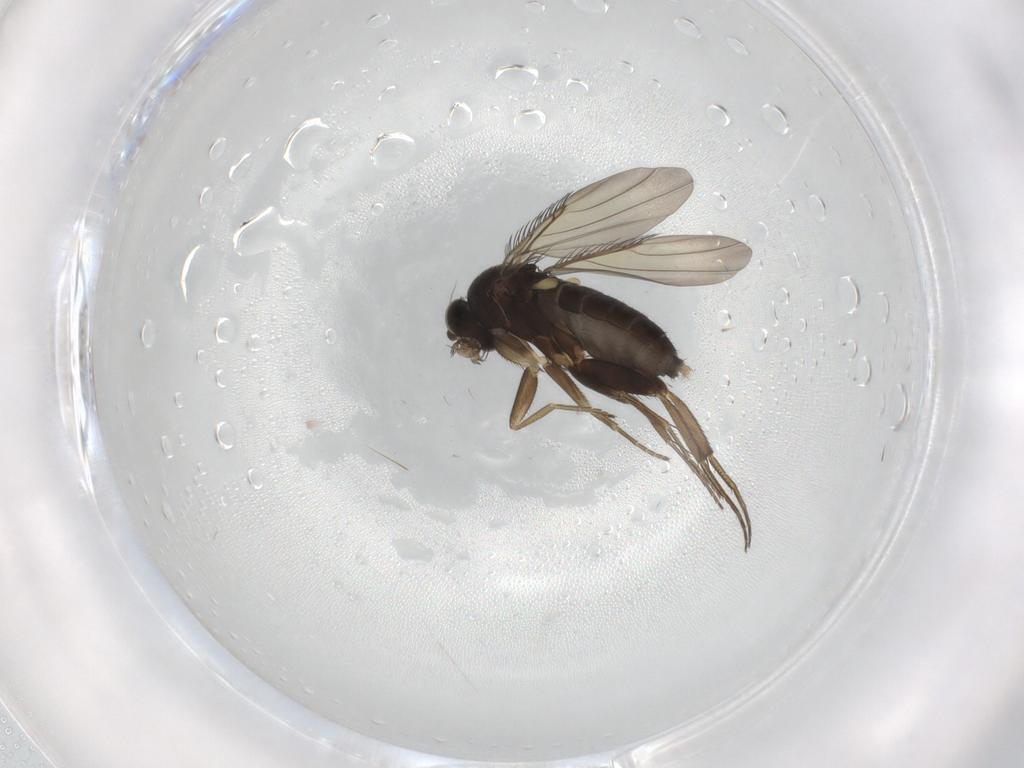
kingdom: Animalia
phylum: Arthropoda
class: Insecta
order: Diptera
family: Phoridae
